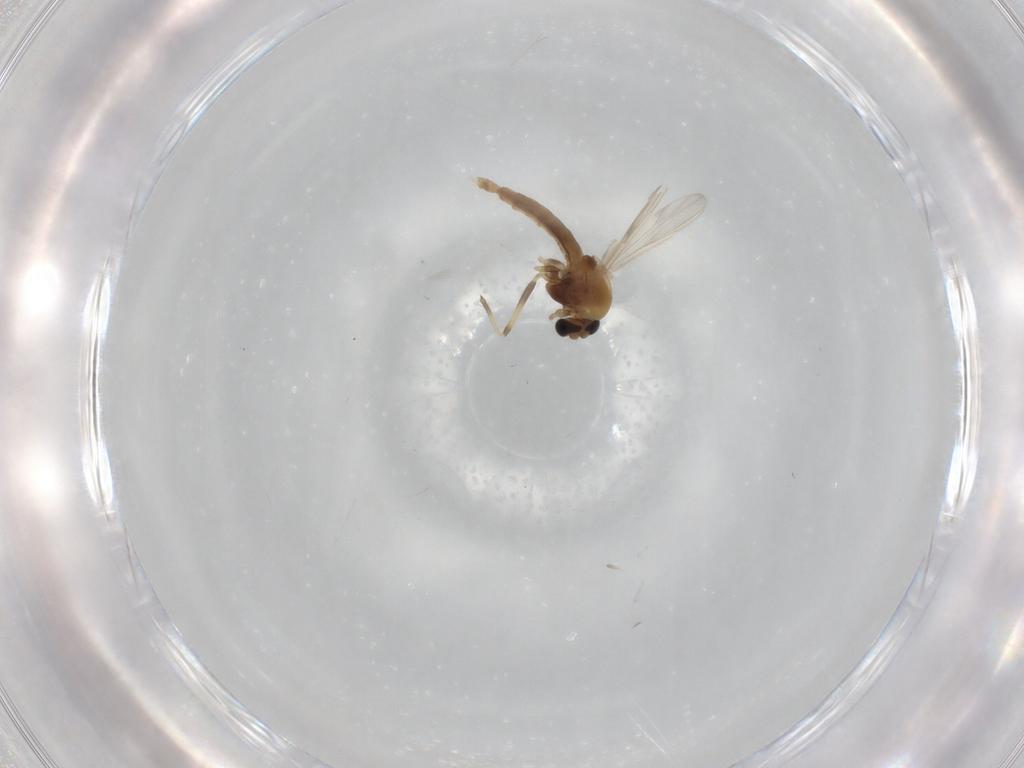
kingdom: Animalia
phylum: Arthropoda
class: Insecta
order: Diptera
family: Chironomidae
